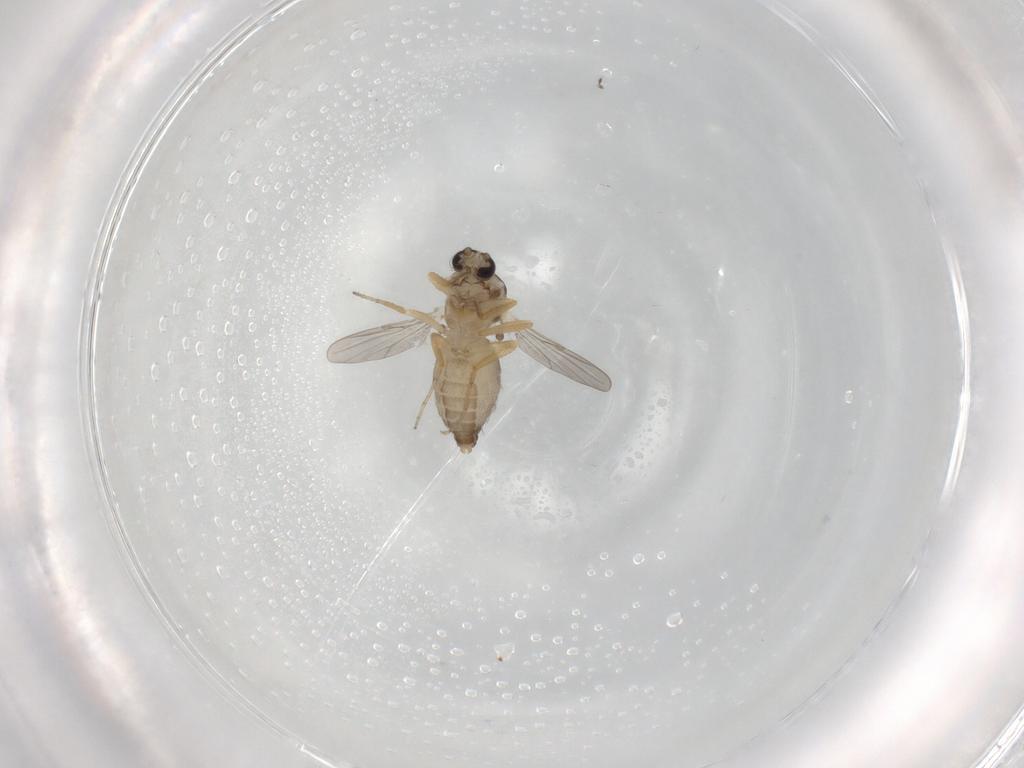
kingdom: Animalia
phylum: Arthropoda
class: Insecta
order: Diptera
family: Ceratopogonidae
